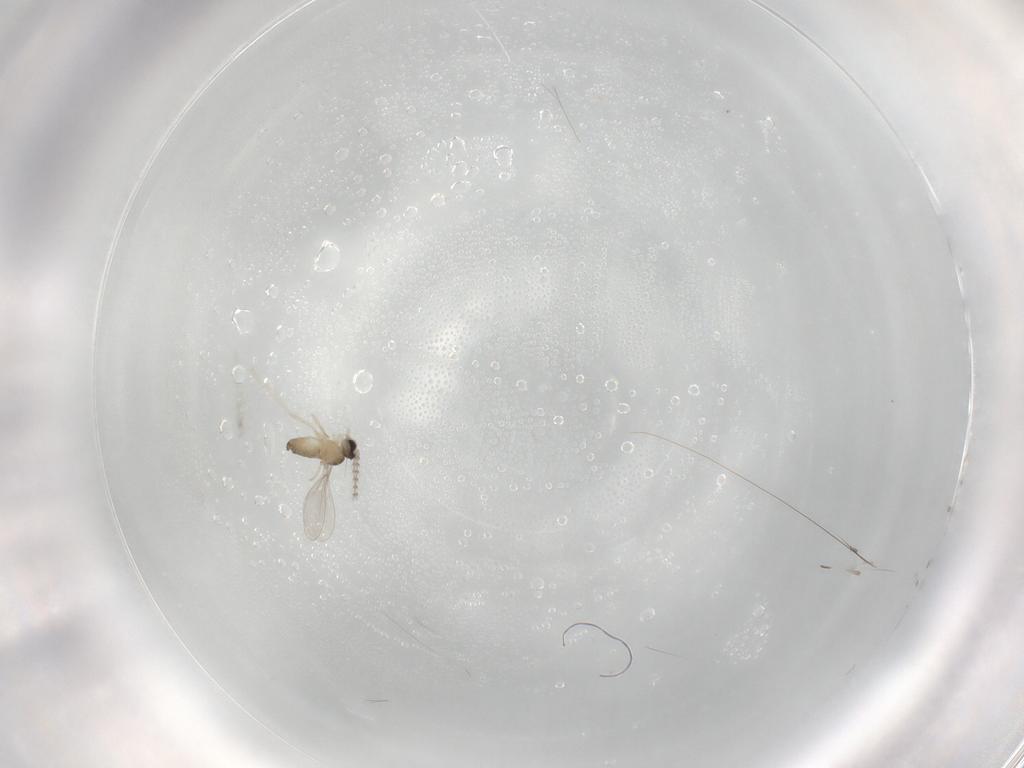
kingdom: Animalia
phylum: Arthropoda
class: Insecta
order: Diptera
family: Cecidomyiidae
